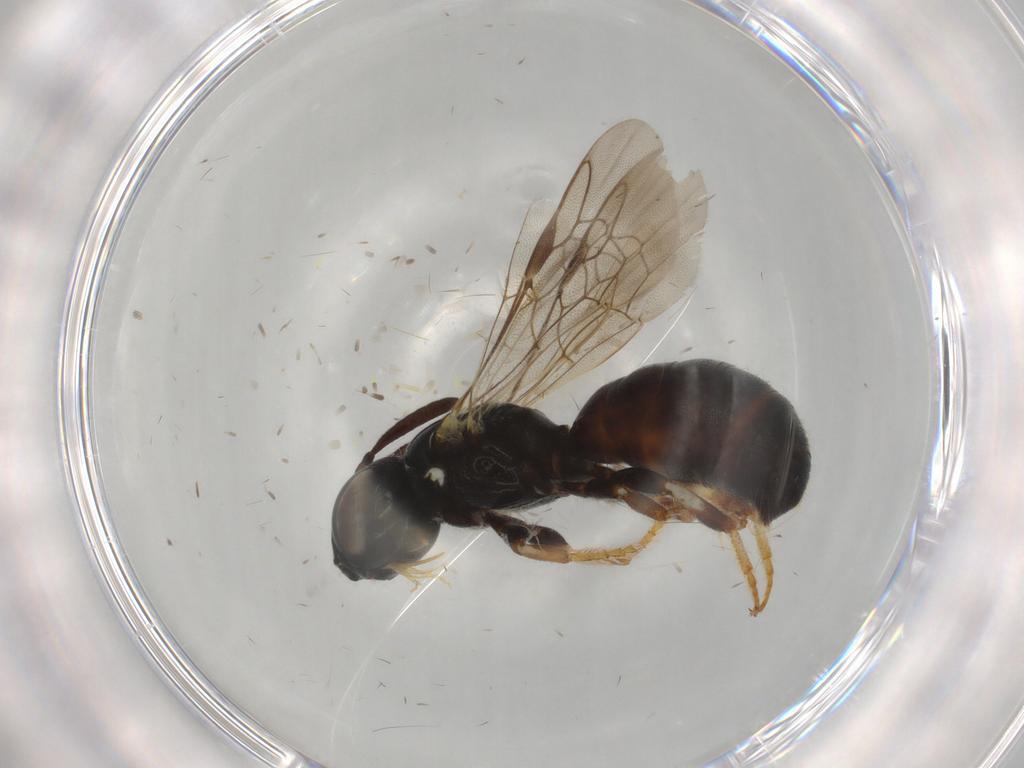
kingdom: Animalia
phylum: Arthropoda
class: Insecta
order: Hymenoptera
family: Apidae
